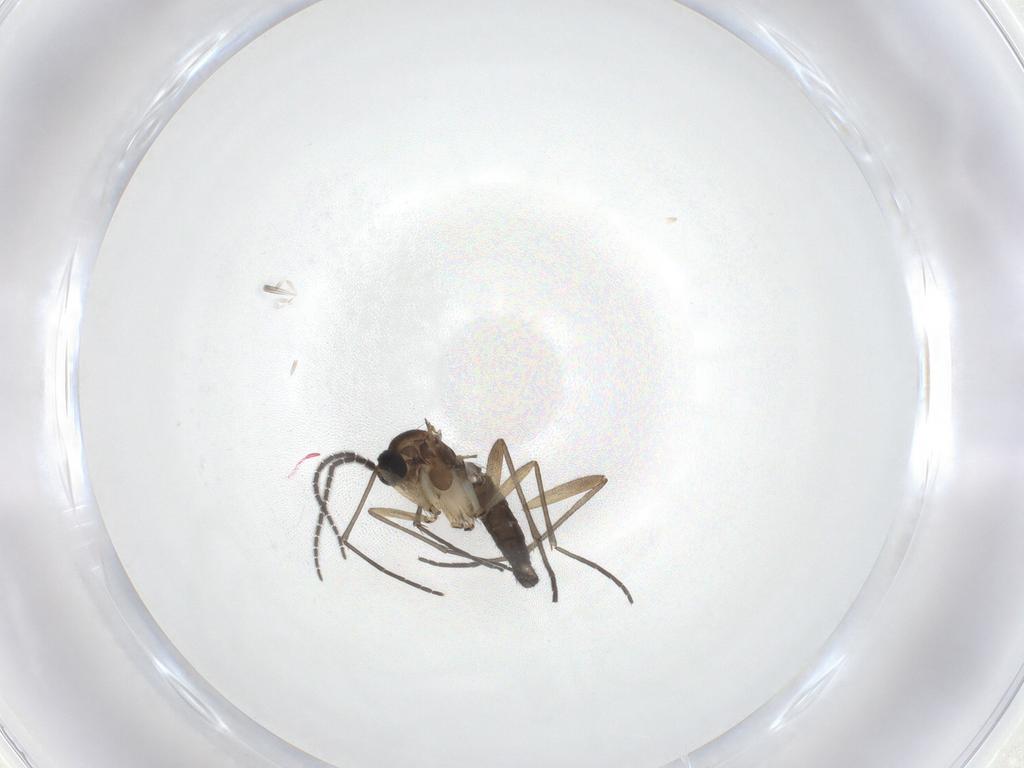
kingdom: Animalia
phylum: Arthropoda
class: Insecta
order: Diptera
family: Sciaridae
